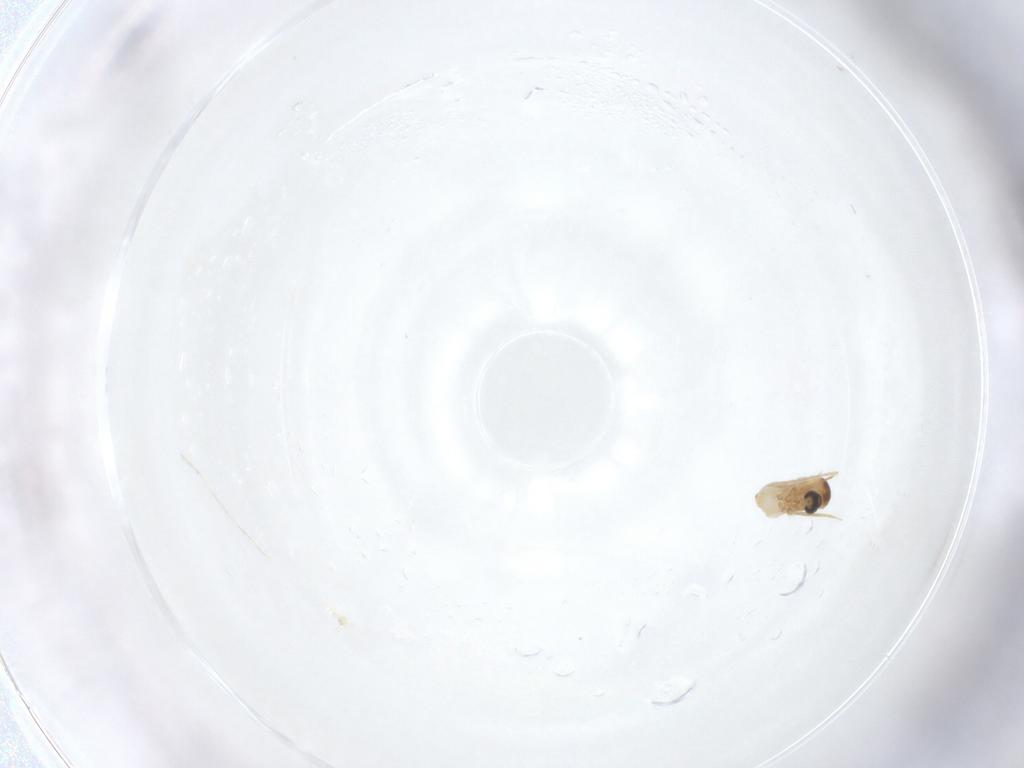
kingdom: Animalia
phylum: Arthropoda
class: Insecta
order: Diptera
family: Cecidomyiidae
